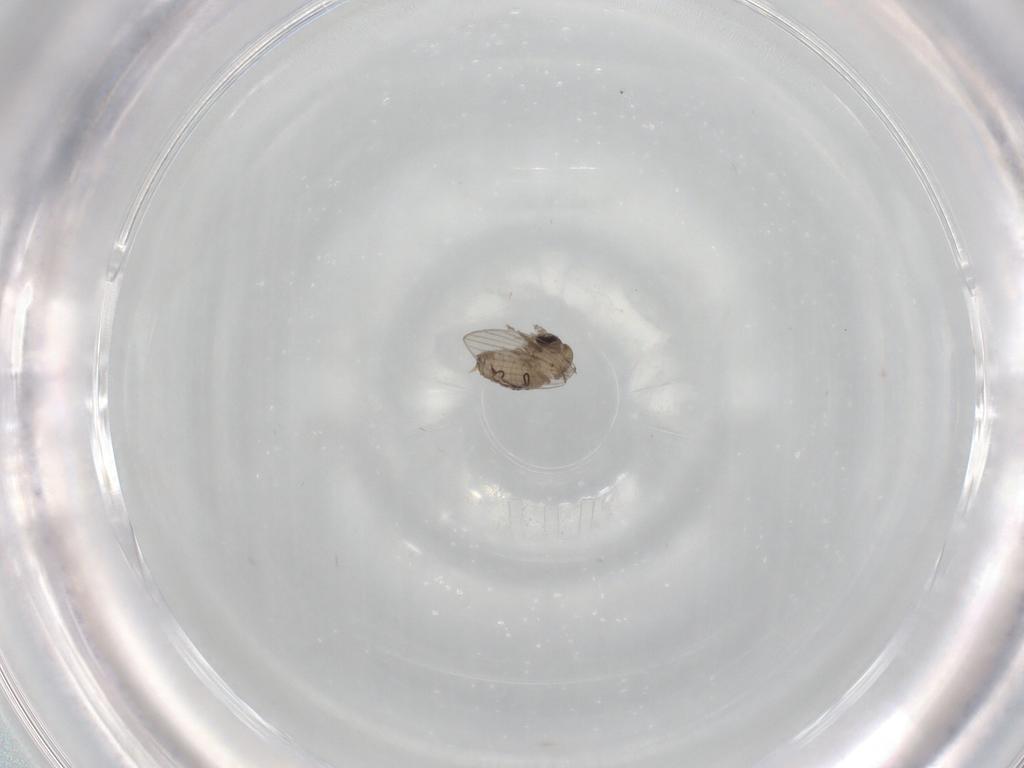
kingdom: Animalia
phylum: Arthropoda
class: Insecta
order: Diptera
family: Psychodidae
